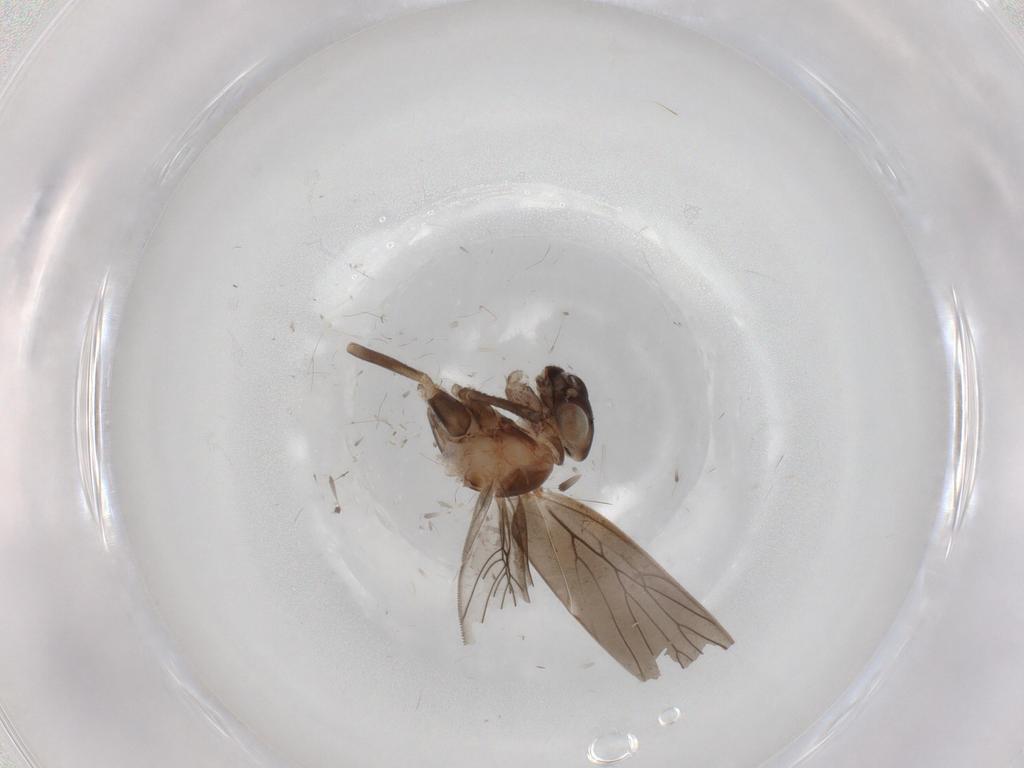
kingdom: Animalia
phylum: Arthropoda
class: Insecta
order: Psocodea
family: Lepidopsocidae
